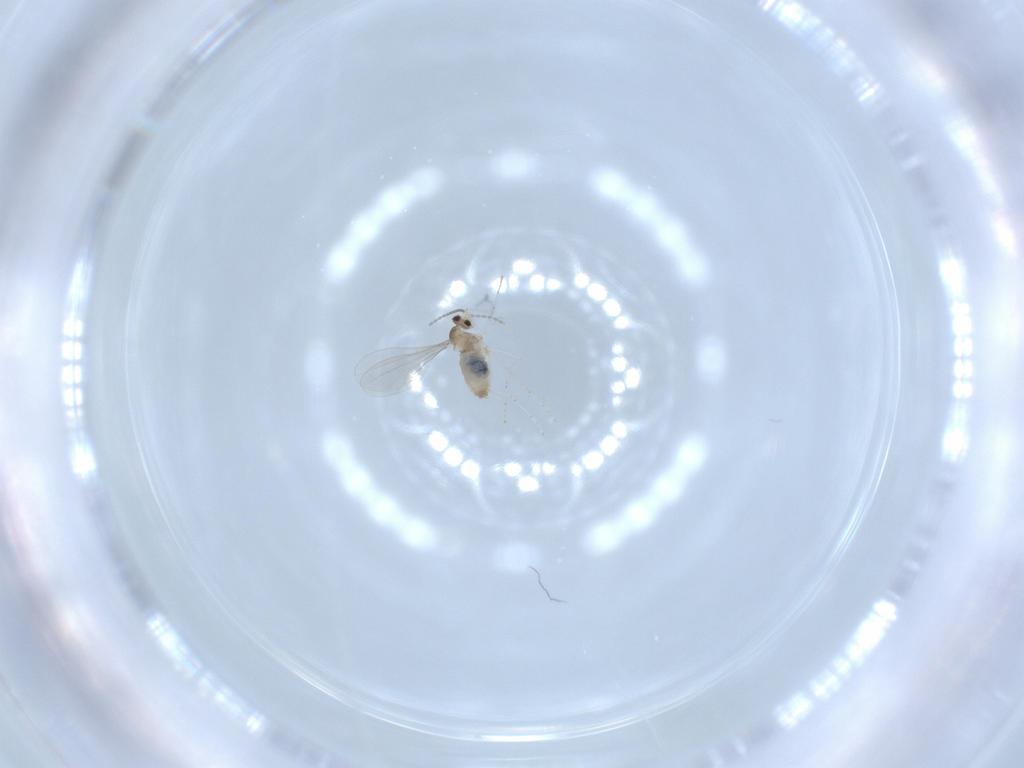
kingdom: Animalia
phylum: Arthropoda
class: Insecta
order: Diptera
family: Cecidomyiidae
